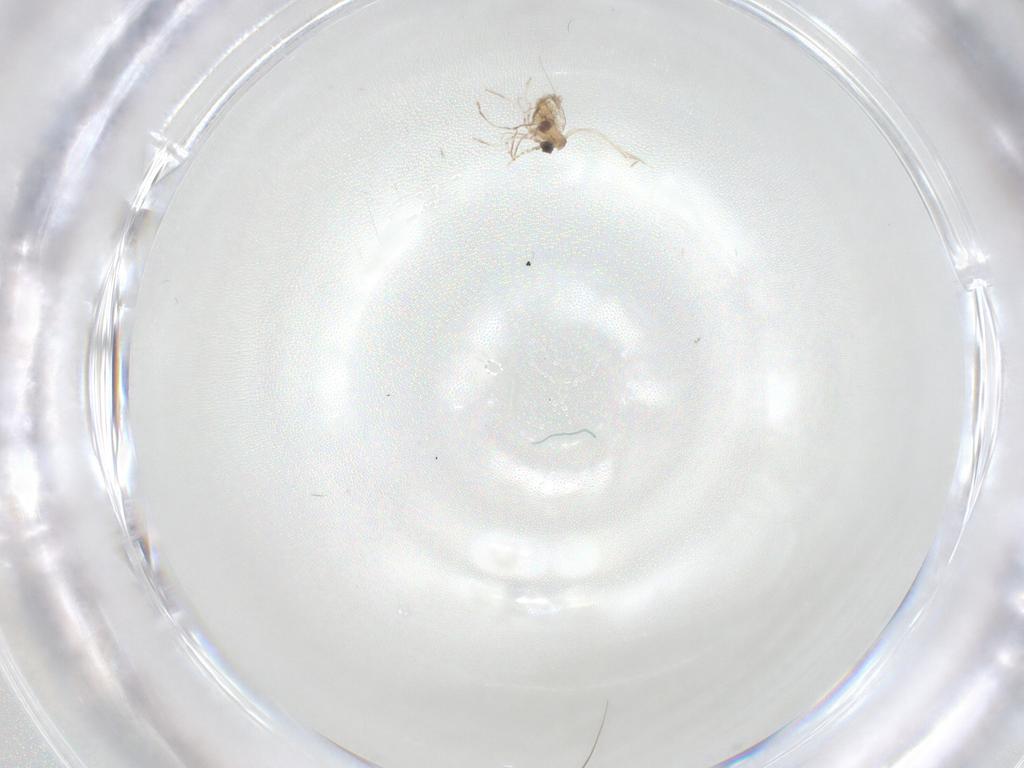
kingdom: Animalia
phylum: Arthropoda
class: Insecta
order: Diptera
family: Cecidomyiidae
